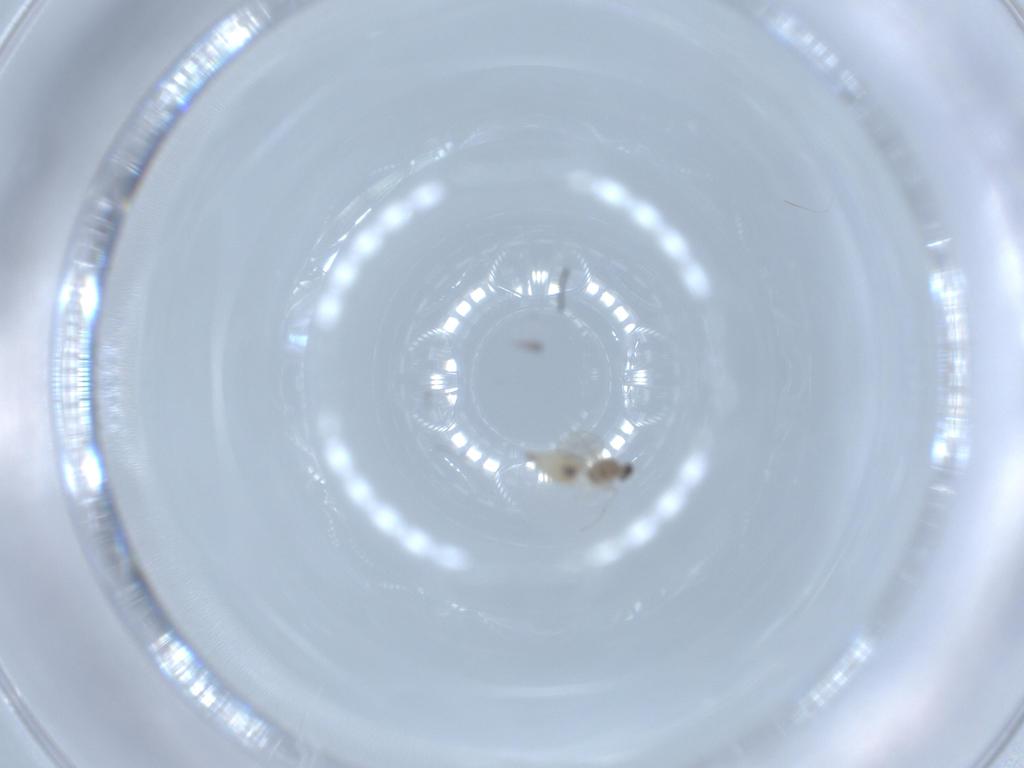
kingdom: Animalia
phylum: Arthropoda
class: Insecta
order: Diptera
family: Cecidomyiidae
